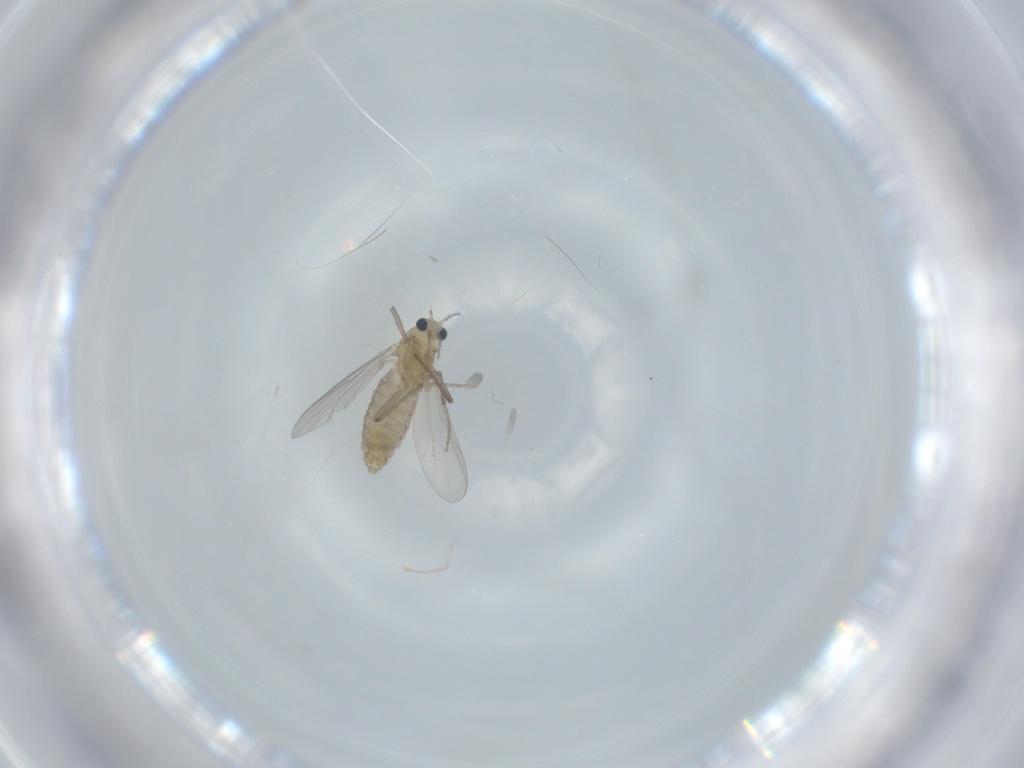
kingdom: Animalia
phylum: Arthropoda
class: Insecta
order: Diptera
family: Chironomidae
